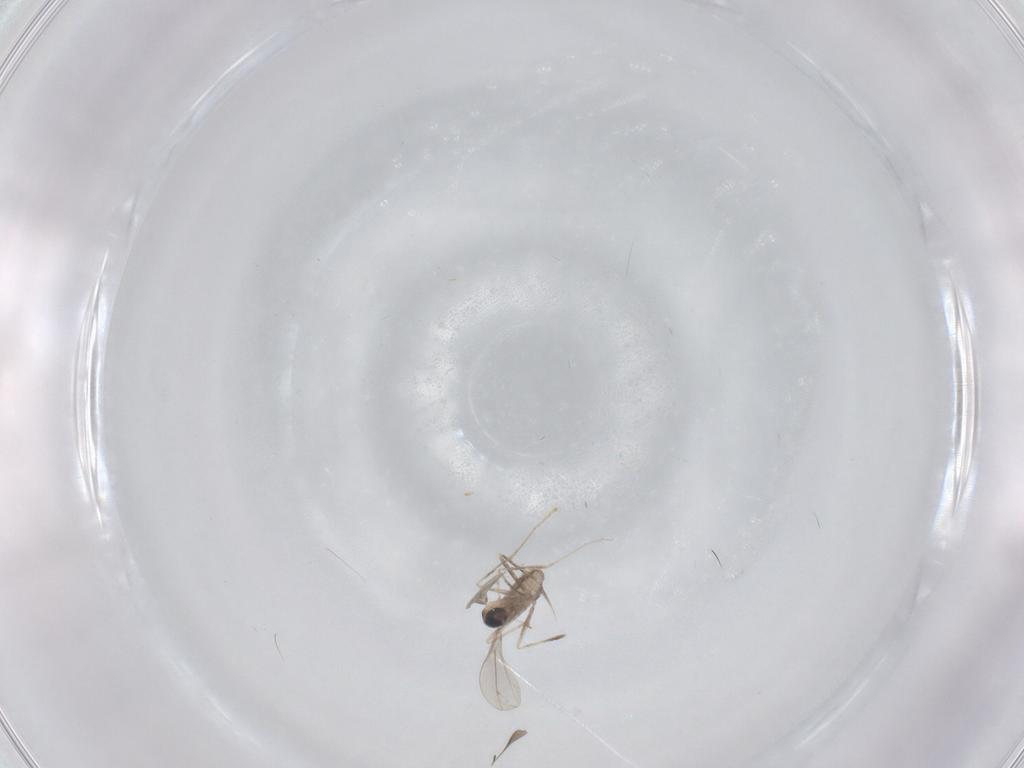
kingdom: Animalia
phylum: Arthropoda
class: Insecta
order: Diptera
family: Cecidomyiidae
